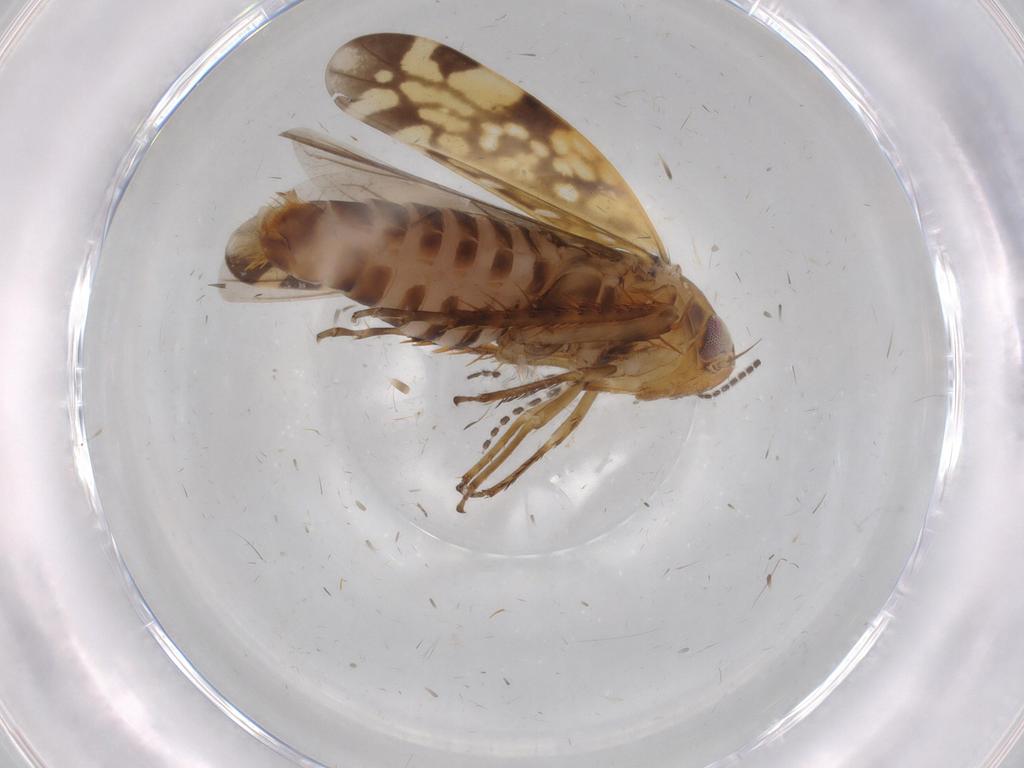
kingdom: Animalia
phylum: Arthropoda
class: Insecta
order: Hemiptera
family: Cicadellidae
